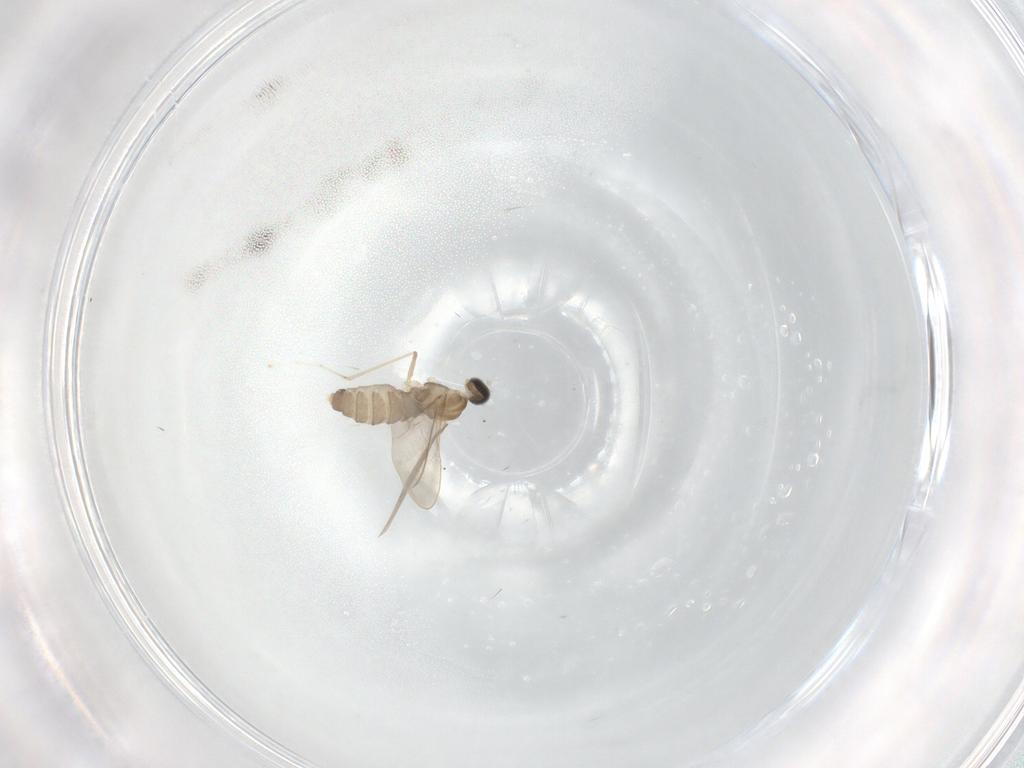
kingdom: Animalia
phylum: Arthropoda
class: Insecta
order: Diptera
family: Cecidomyiidae
